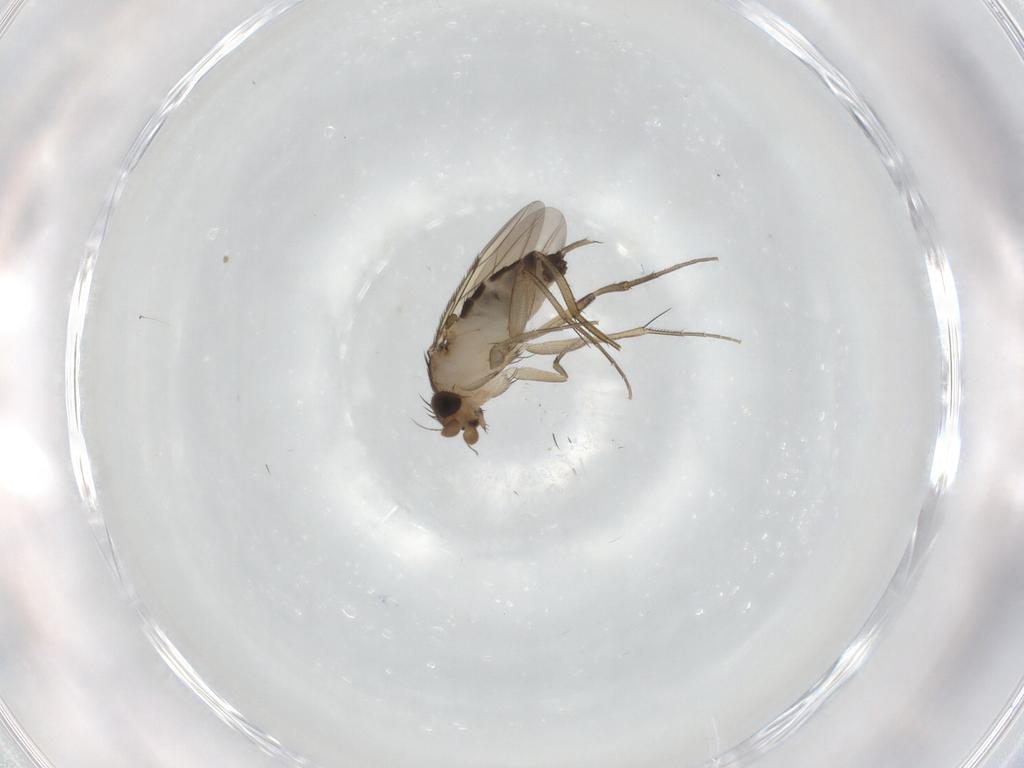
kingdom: Animalia
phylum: Arthropoda
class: Insecta
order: Diptera
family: Phoridae
